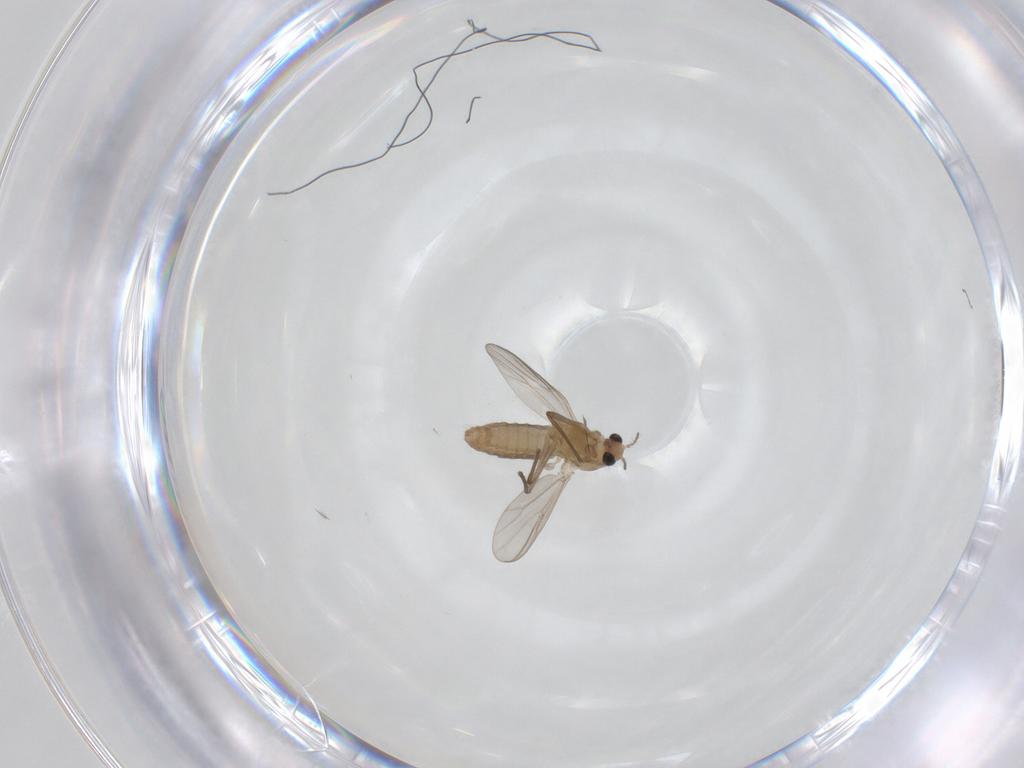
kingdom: Animalia
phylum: Arthropoda
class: Insecta
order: Diptera
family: Chironomidae
